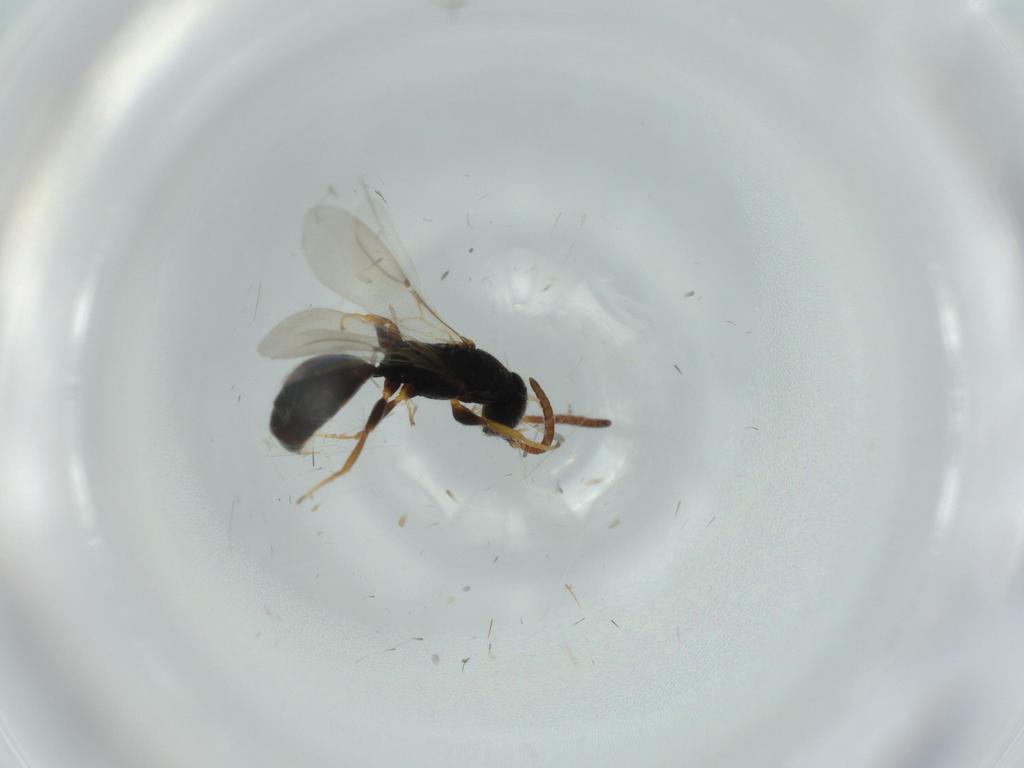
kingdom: Animalia
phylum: Arthropoda
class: Insecta
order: Hymenoptera
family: Bethylidae
